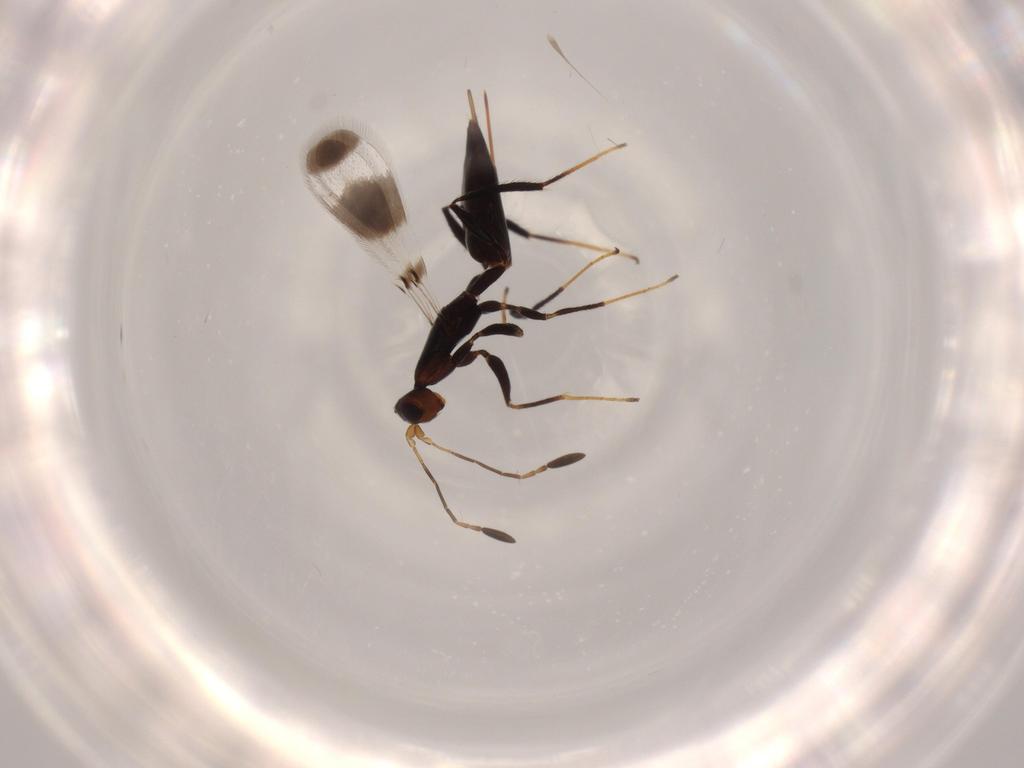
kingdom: Animalia
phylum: Arthropoda
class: Insecta
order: Hymenoptera
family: Mymaridae
